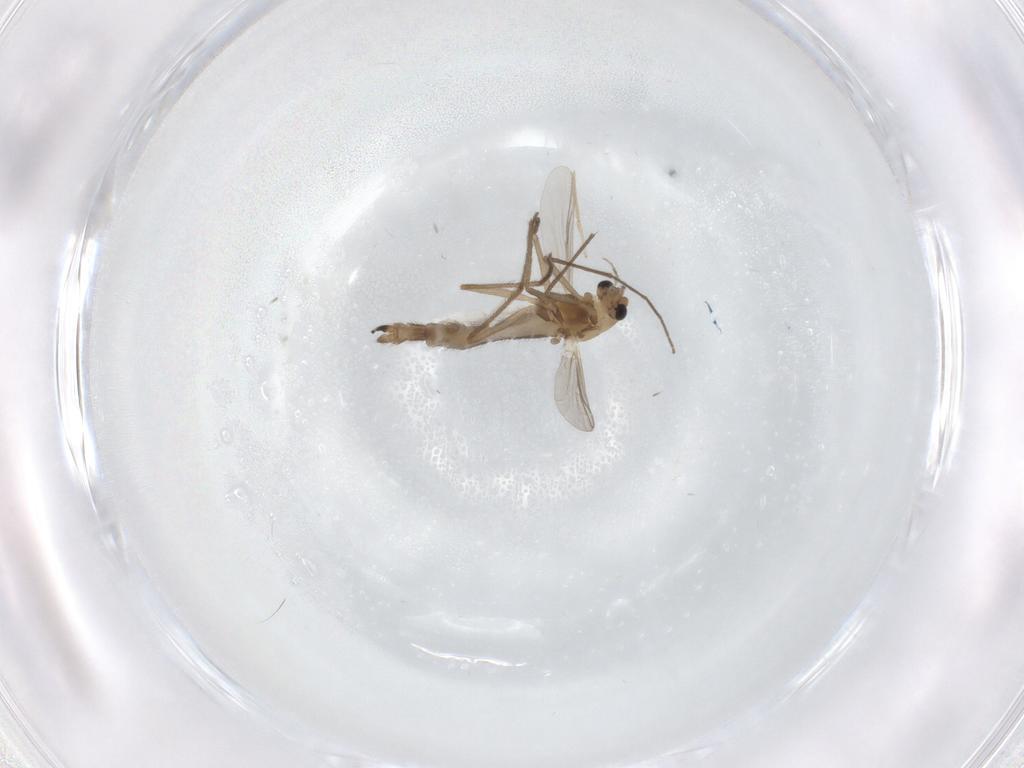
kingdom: Animalia
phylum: Arthropoda
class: Insecta
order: Diptera
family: Chironomidae
